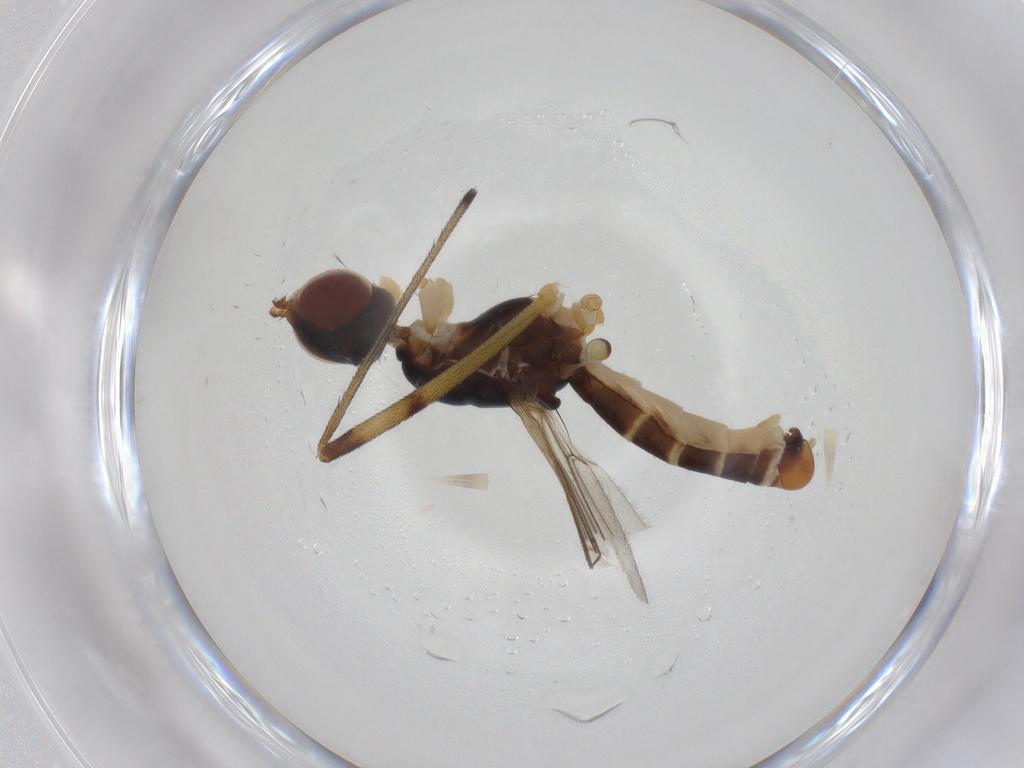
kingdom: Animalia
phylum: Arthropoda
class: Insecta
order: Diptera
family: Micropezidae
